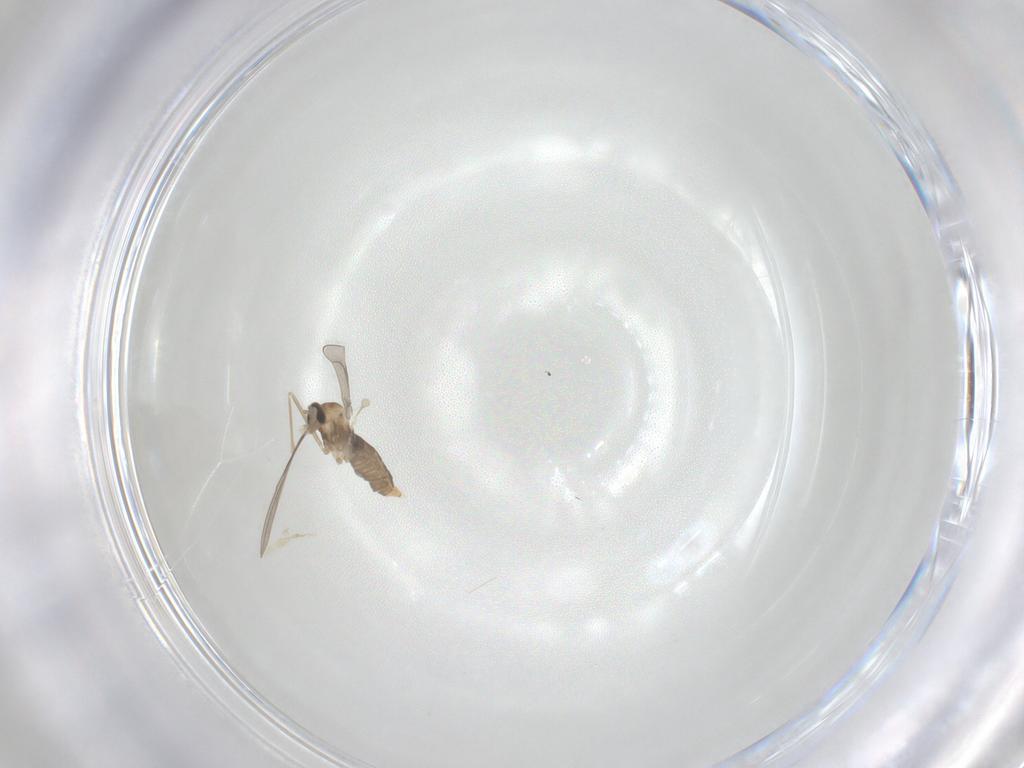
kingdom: Animalia
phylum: Arthropoda
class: Insecta
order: Diptera
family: Cecidomyiidae
